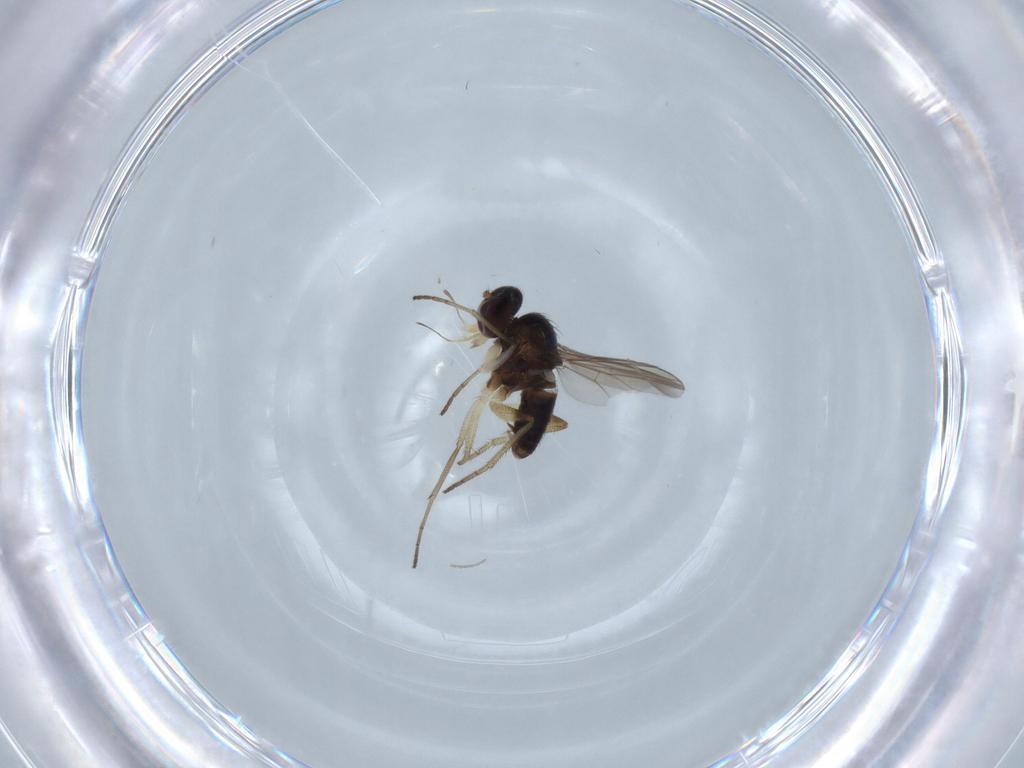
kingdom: Animalia
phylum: Arthropoda
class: Insecta
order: Diptera
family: Dolichopodidae
